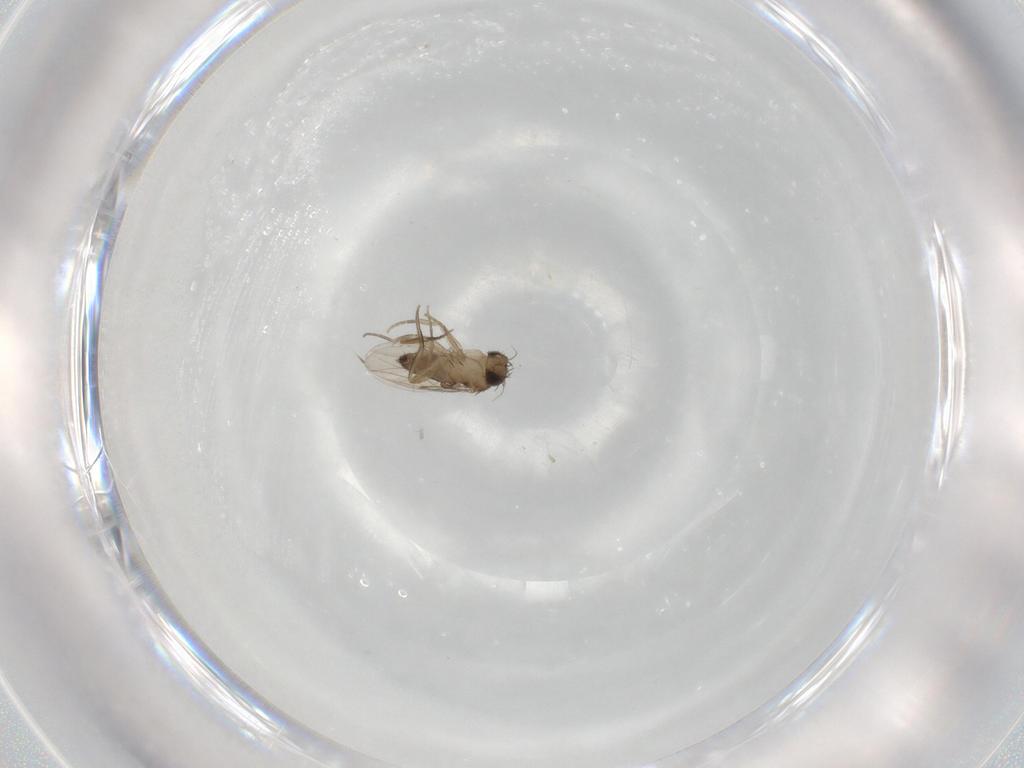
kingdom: Animalia
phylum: Arthropoda
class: Insecta
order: Diptera
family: Phoridae
